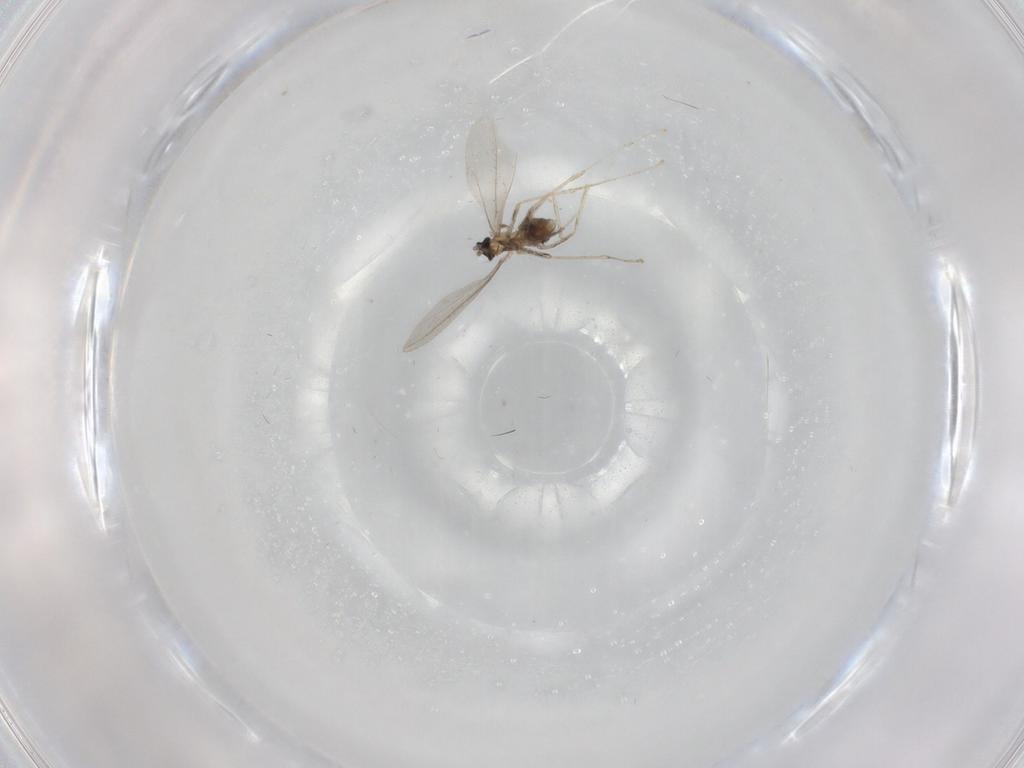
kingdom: Animalia
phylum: Arthropoda
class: Insecta
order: Diptera
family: Cecidomyiidae
